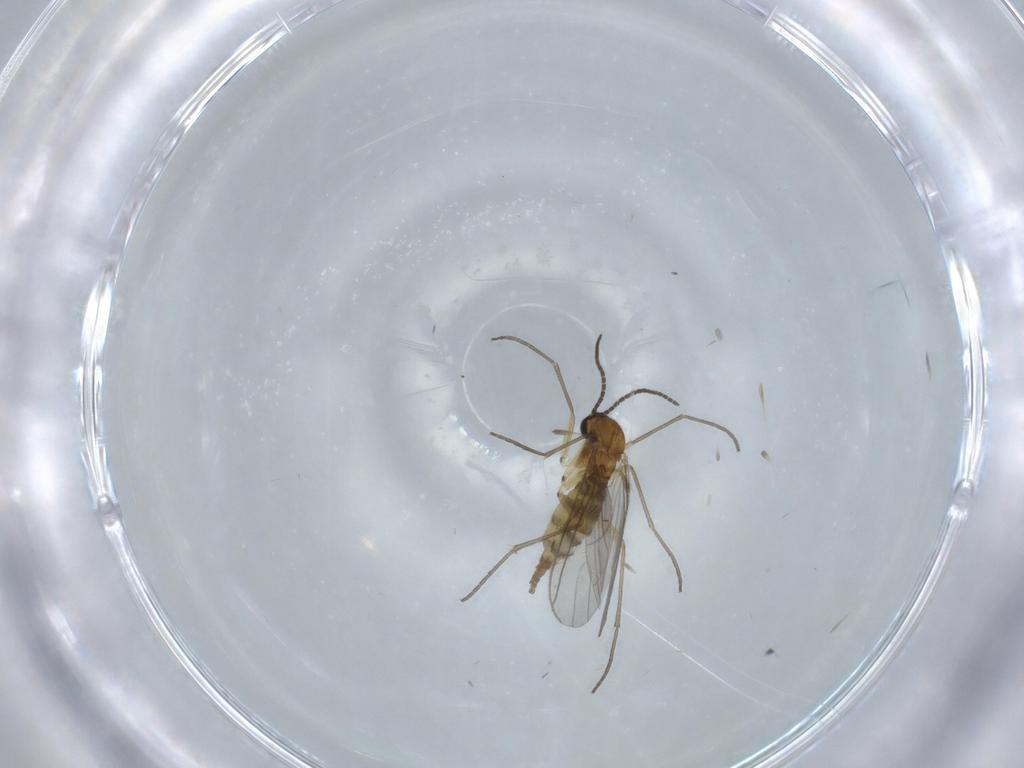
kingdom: Animalia
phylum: Arthropoda
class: Insecta
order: Diptera
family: Sciaridae
